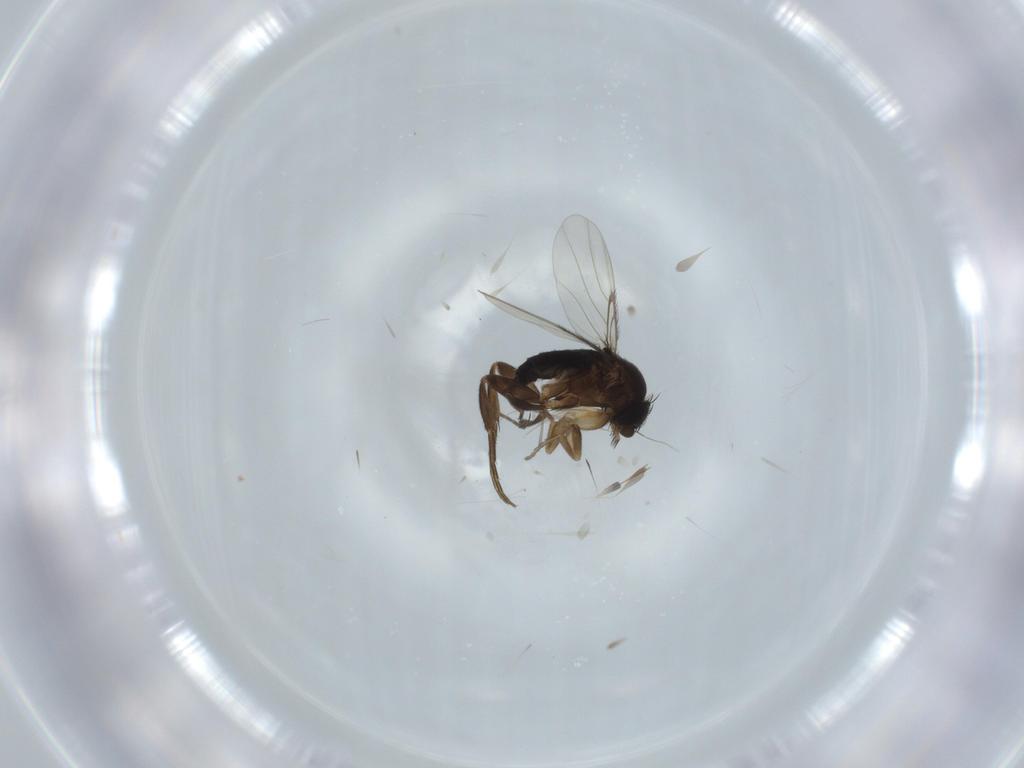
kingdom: Animalia
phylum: Arthropoda
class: Insecta
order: Diptera
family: Phoridae
